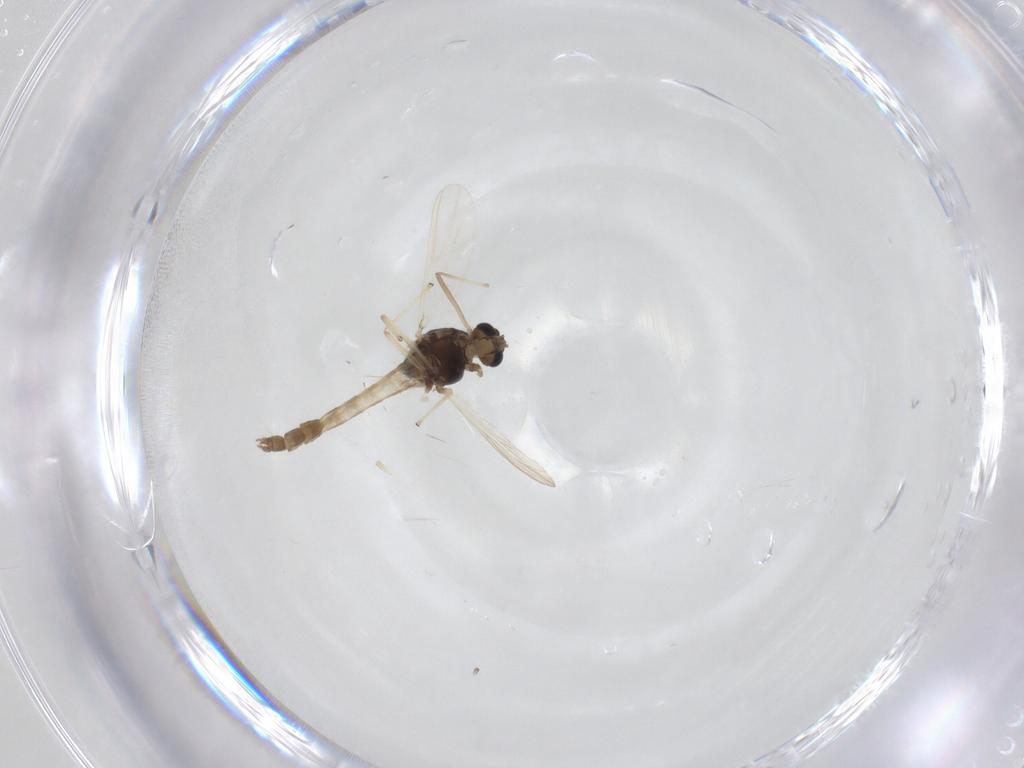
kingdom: Animalia
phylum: Arthropoda
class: Insecta
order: Diptera
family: Chironomidae
